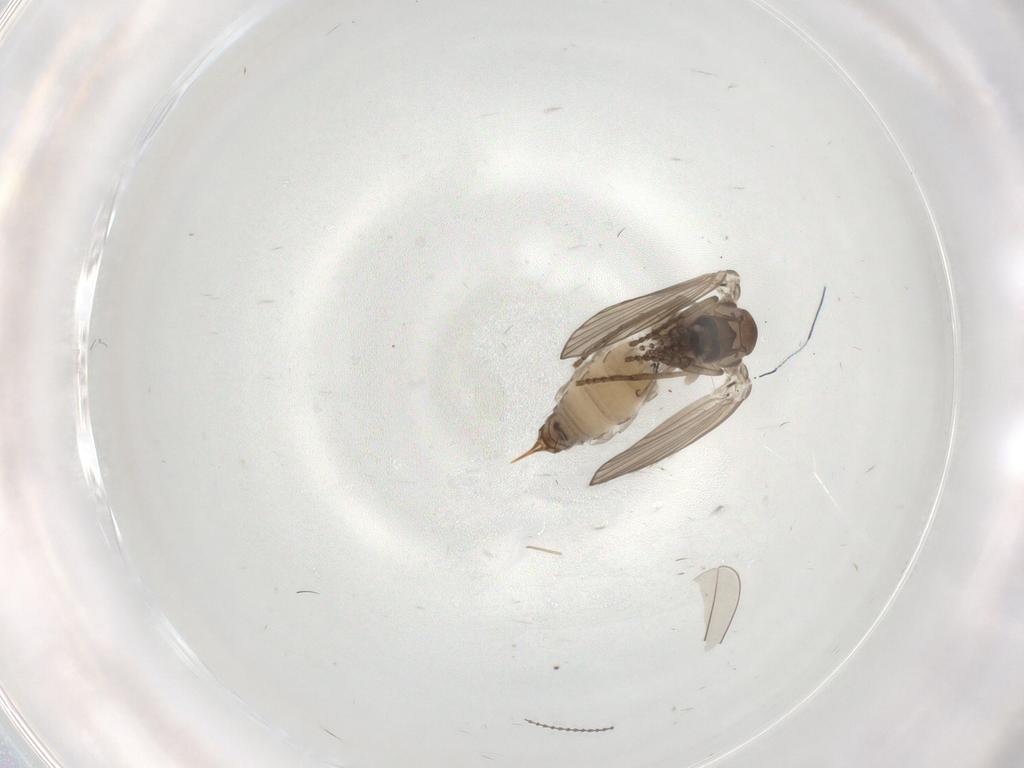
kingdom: Animalia
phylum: Arthropoda
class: Insecta
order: Diptera
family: Psychodidae
